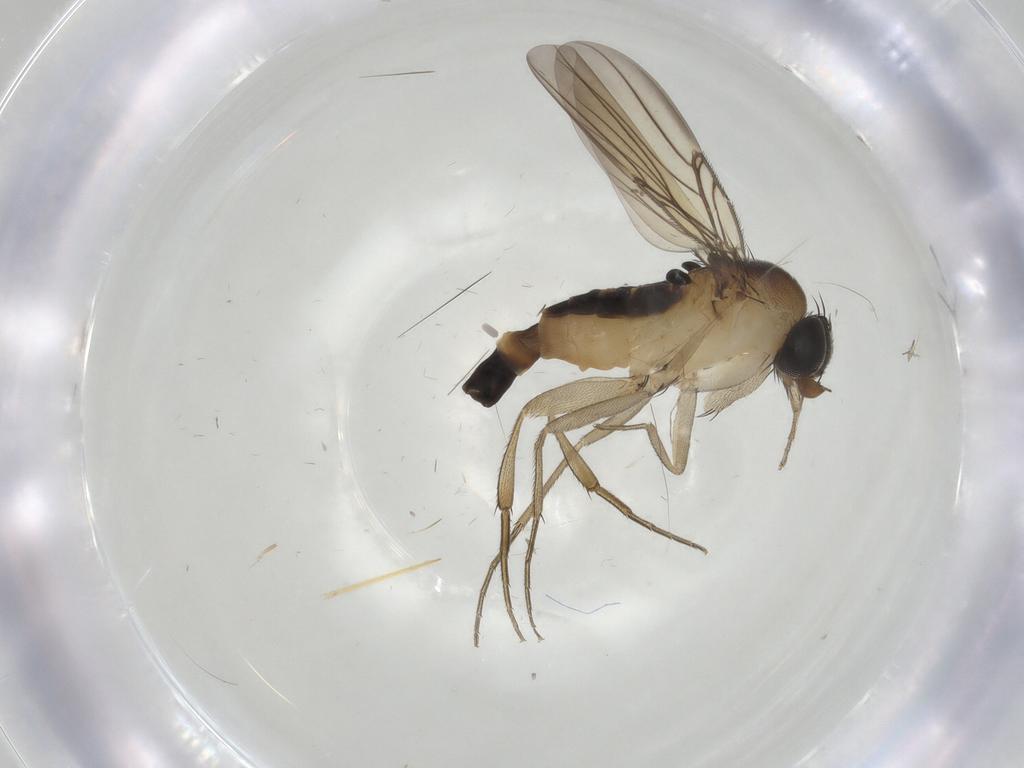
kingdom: Animalia
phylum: Arthropoda
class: Insecta
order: Diptera
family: Phoridae
